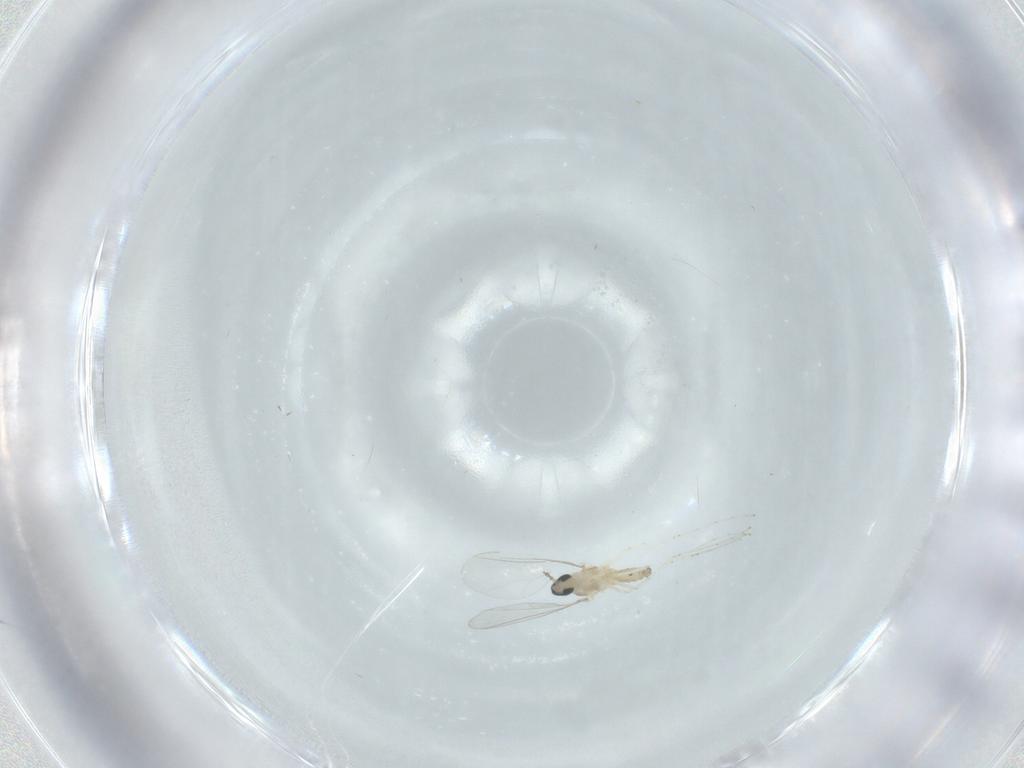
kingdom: Animalia
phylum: Arthropoda
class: Insecta
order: Diptera
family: Cecidomyiidae
